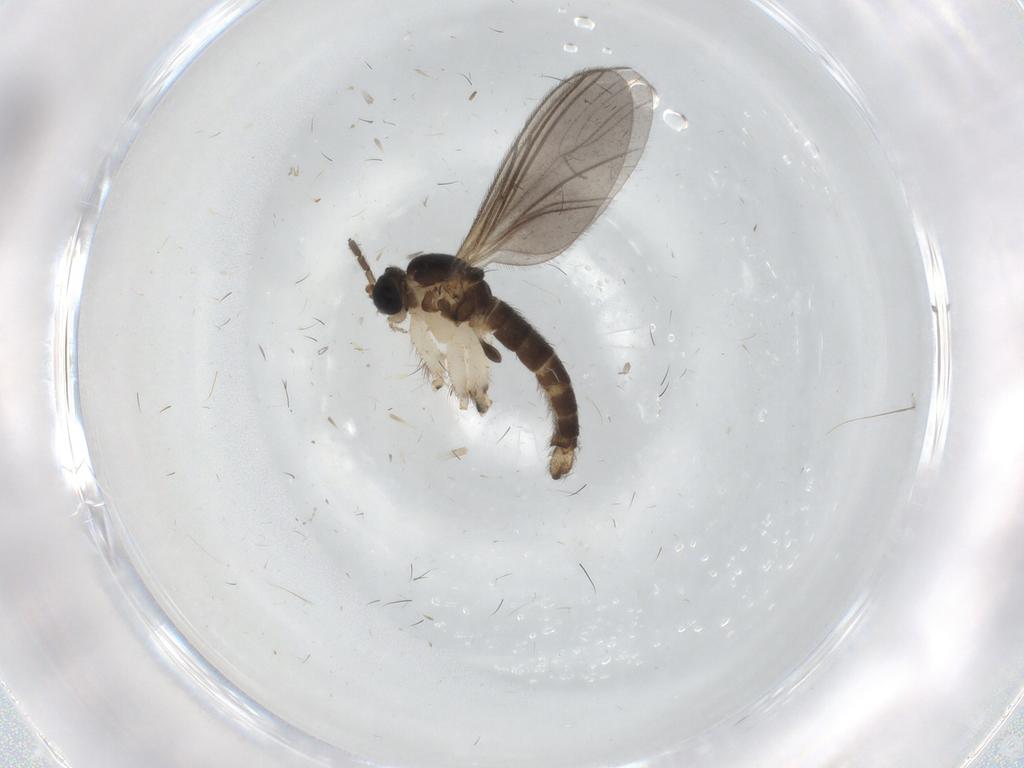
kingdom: Animalia
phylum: Arthropoda
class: Insecta
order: Diptera
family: Sciaridae
